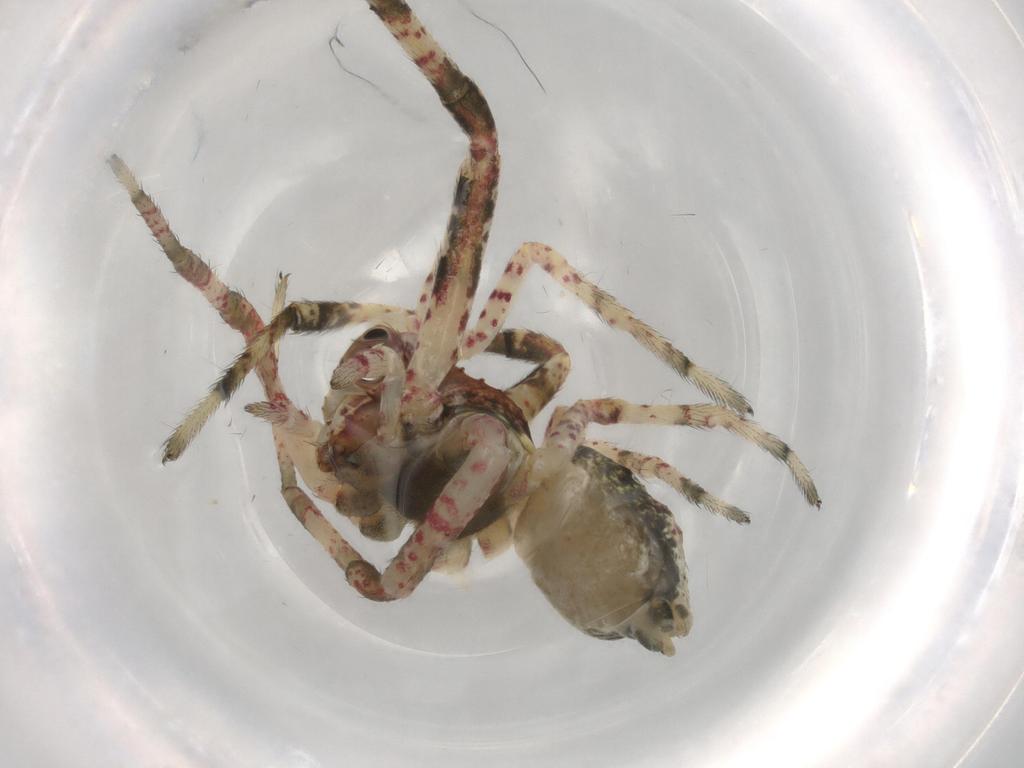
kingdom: Animalia
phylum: Arthropoda
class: Arachnida
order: Araneae
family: Thomisidae
